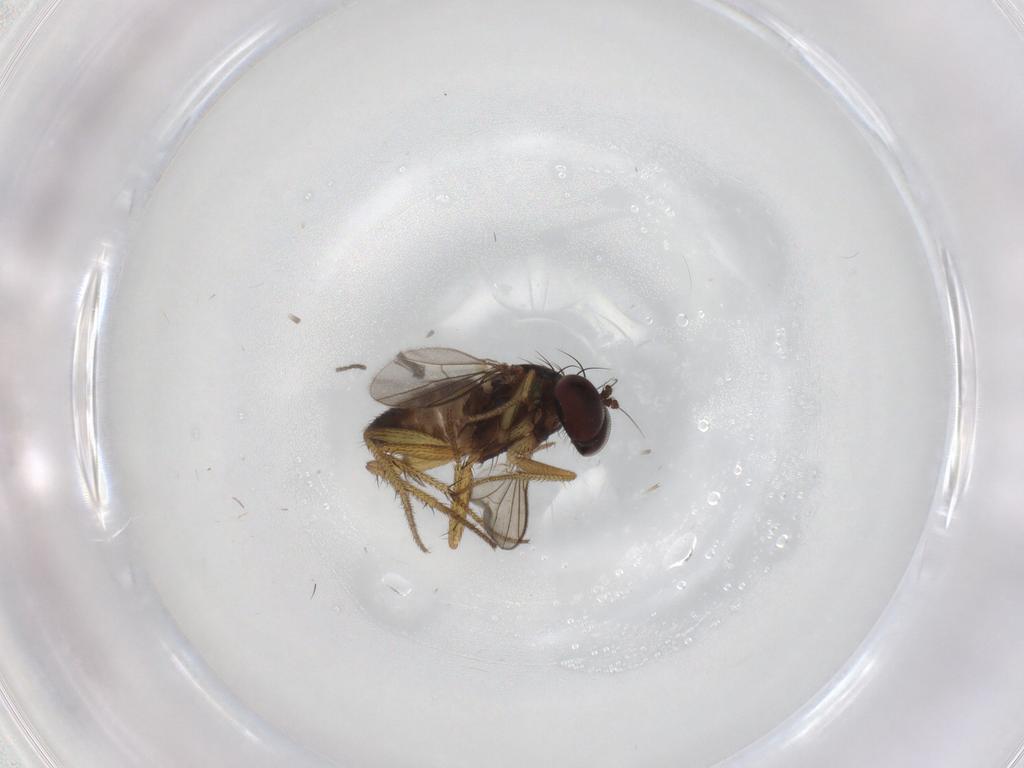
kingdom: Animalia
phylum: Arthropoda
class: Insecta
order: Diptera
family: Sciaridae
